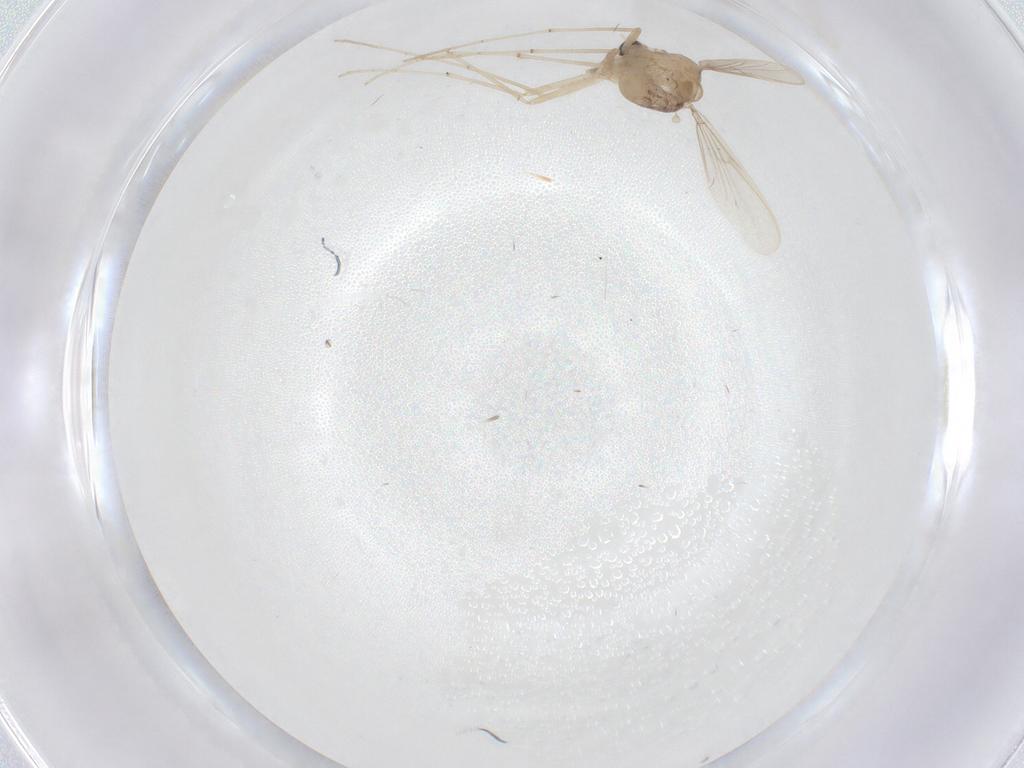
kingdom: Animalia
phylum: Arthropoda
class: Insecta
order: Diptera
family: Chironomidae
